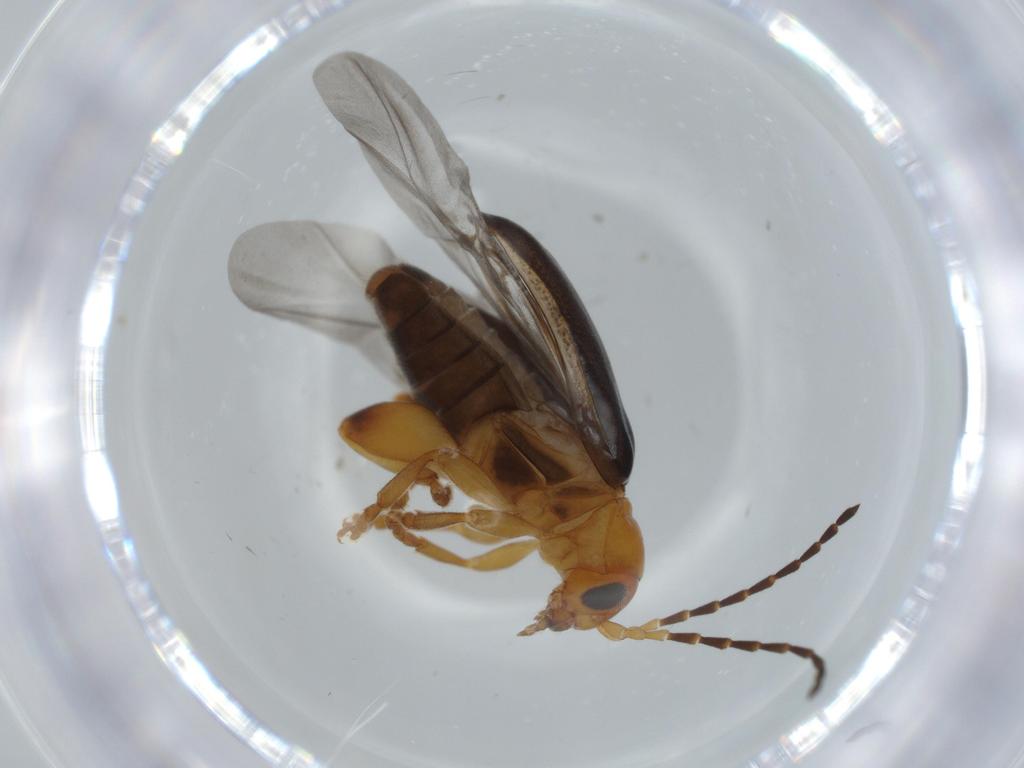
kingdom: Animalia
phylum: Arthropoda
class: Insecta
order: Coleoptera
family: Chrysomelidae
